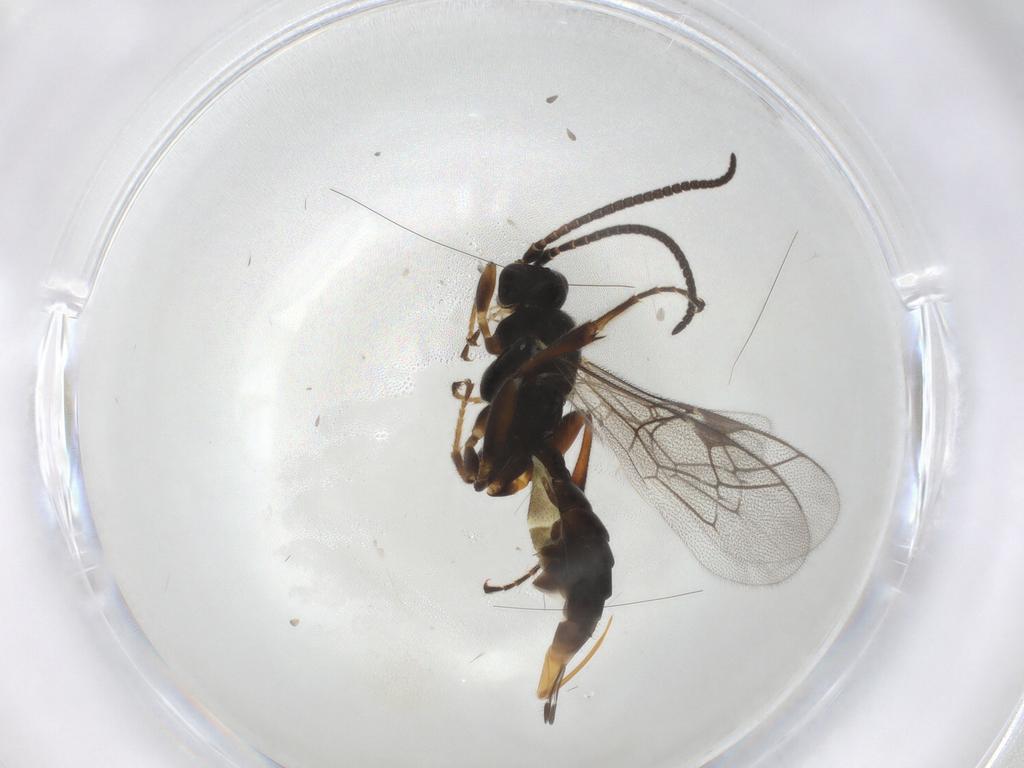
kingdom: Animalia
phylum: Arthropoda
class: Insecta
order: Hymenoptera
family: Ichneumonidae
